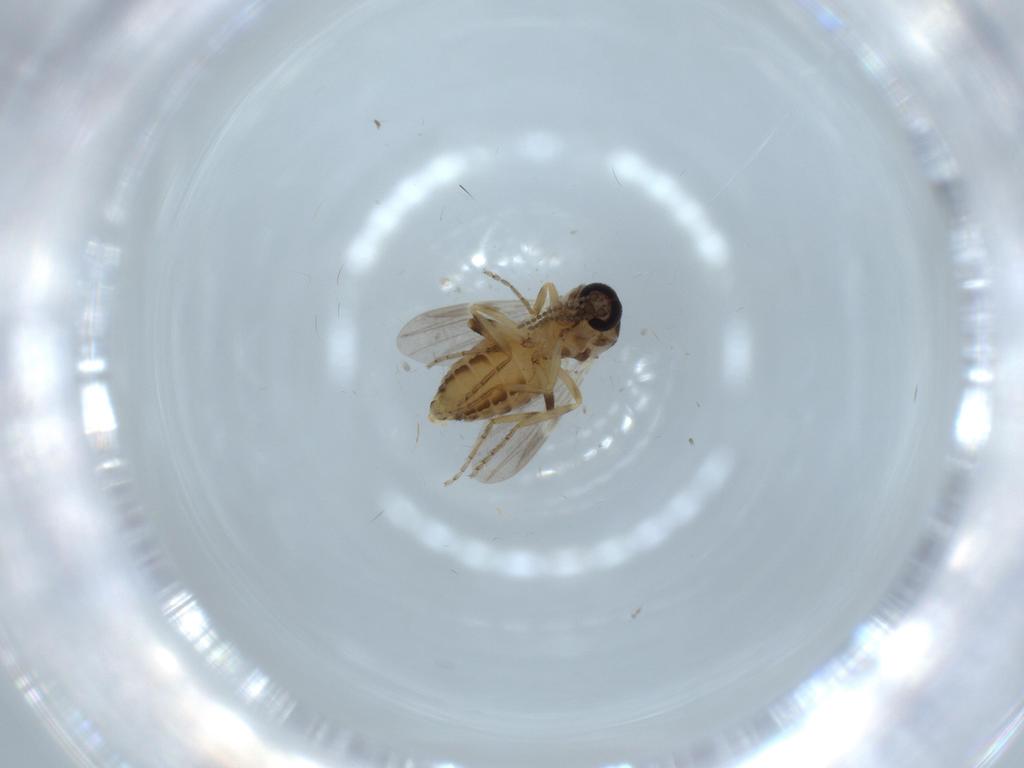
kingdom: Animalia
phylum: Arthropoda
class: Insecta
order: Diptera
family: Ceratopogonidae
